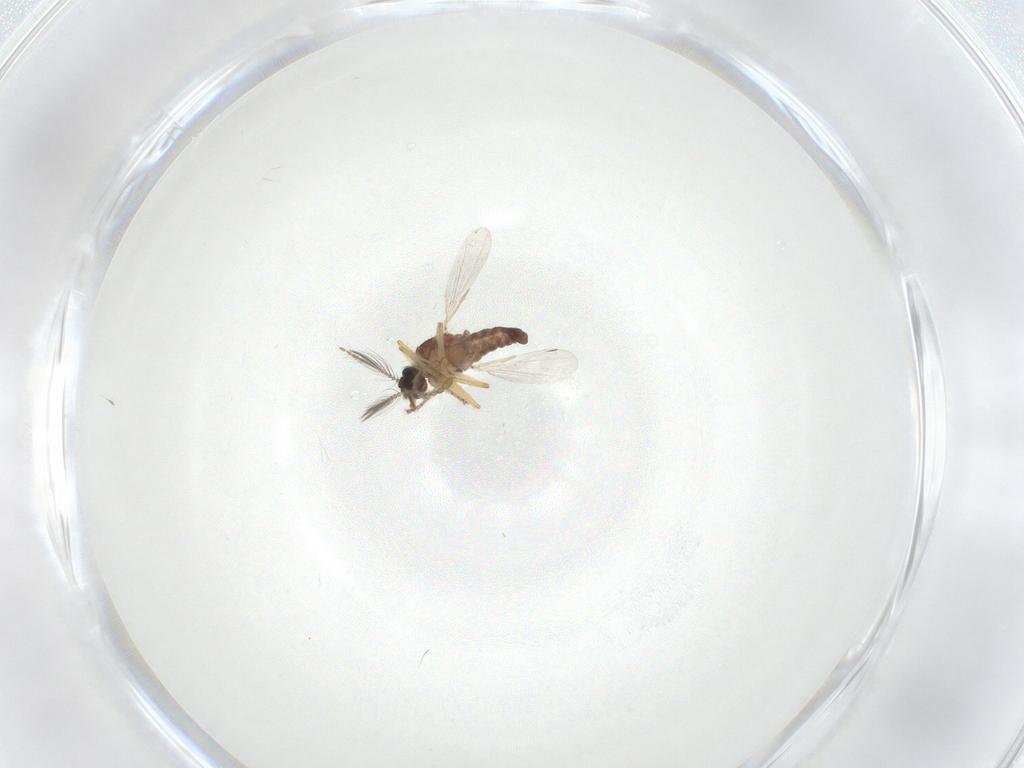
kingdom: Animalia
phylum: Arthropoda
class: Insecta
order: Diptera
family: Ceratopogonidae
